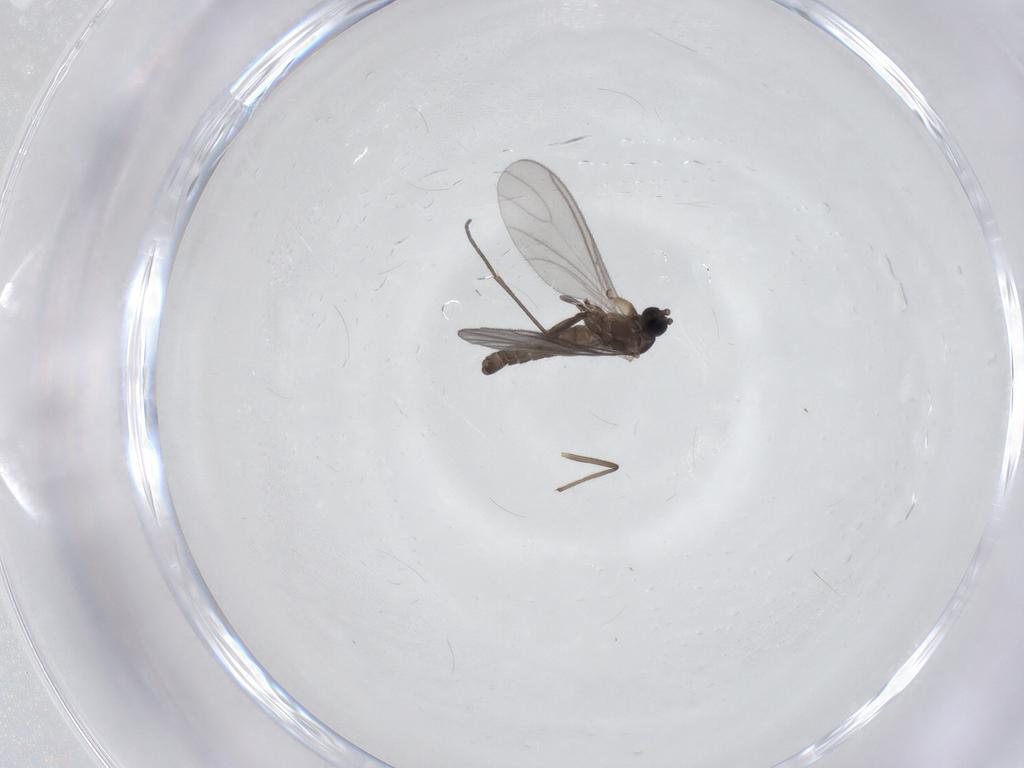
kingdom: Animalia
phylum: Arthropoda
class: Insecta
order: Diptera
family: Sciaridae
